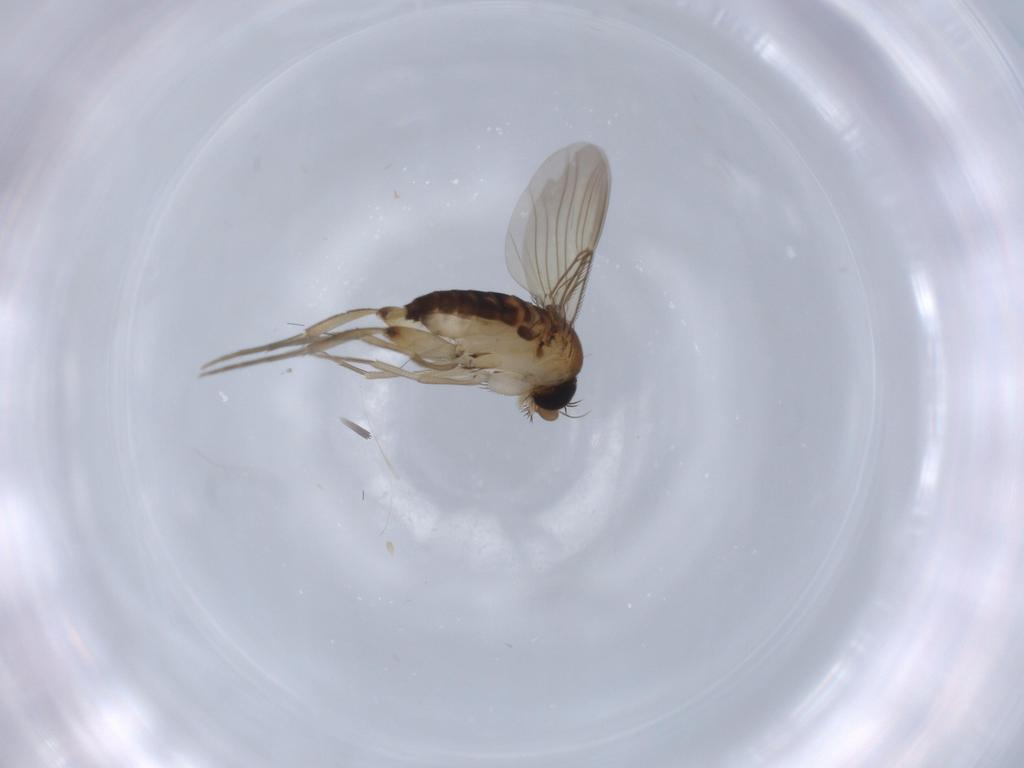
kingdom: Animalia
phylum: Arthropoda
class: Insecta
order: Diptera
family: Phoridae
